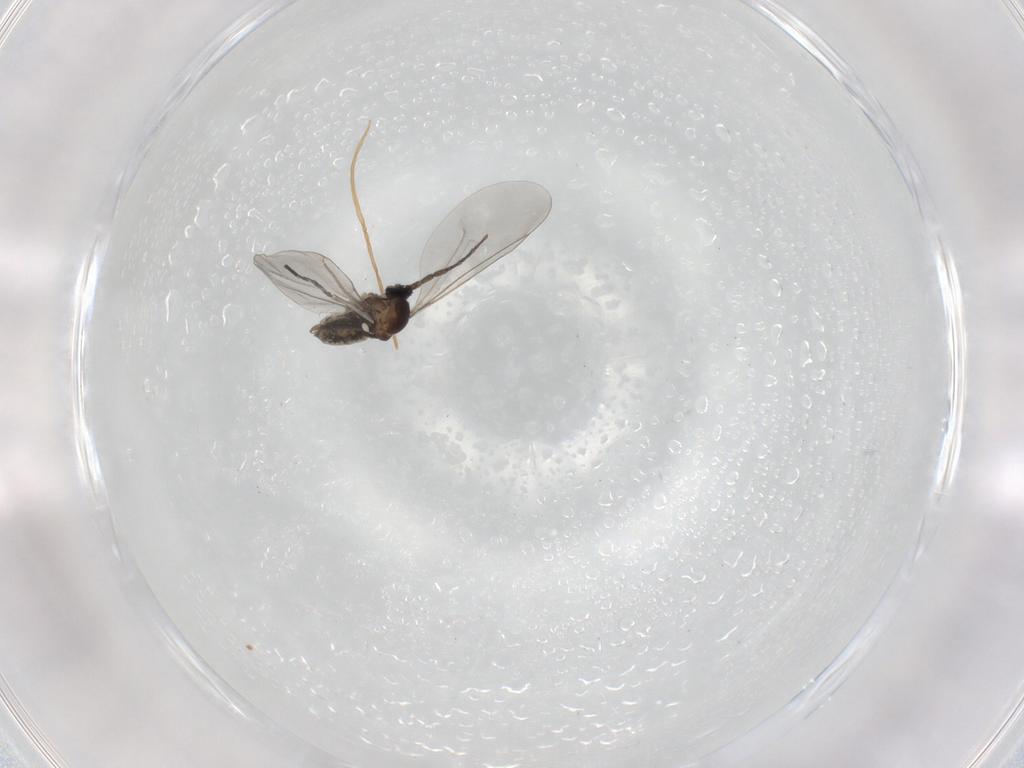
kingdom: Animalia
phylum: Arthropoda
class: Insecta
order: Diptera
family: Cecidomyiidae
